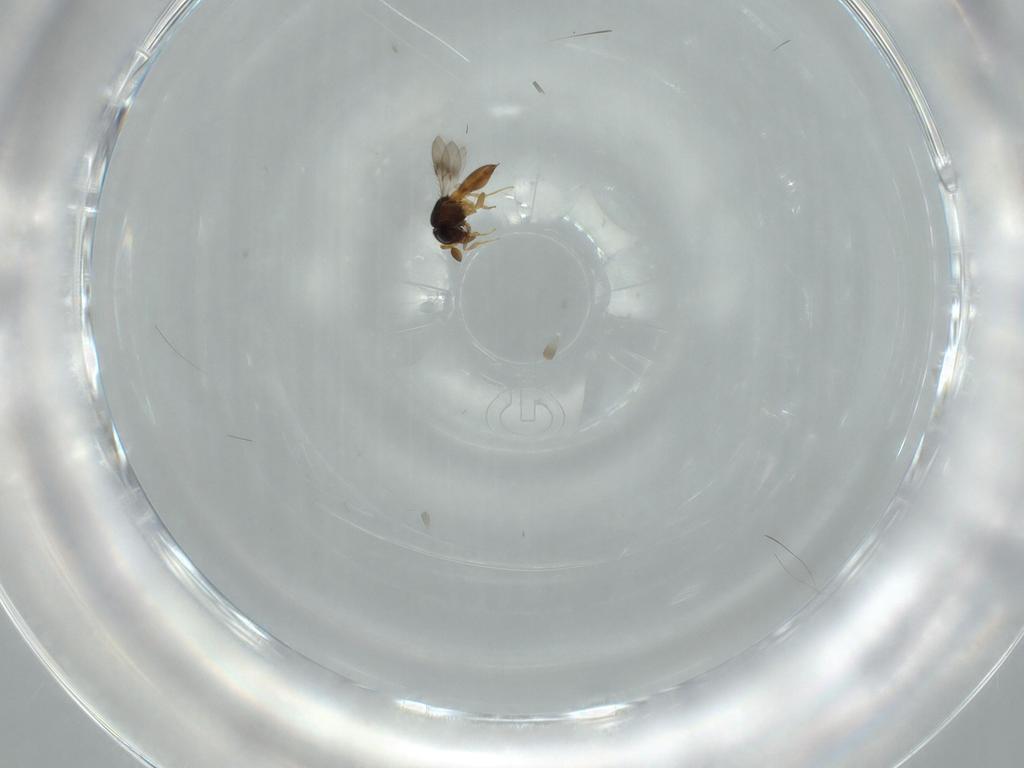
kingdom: Animalia
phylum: Arthropoda
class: Insecta
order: Hymenoptera
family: Scelionidae
